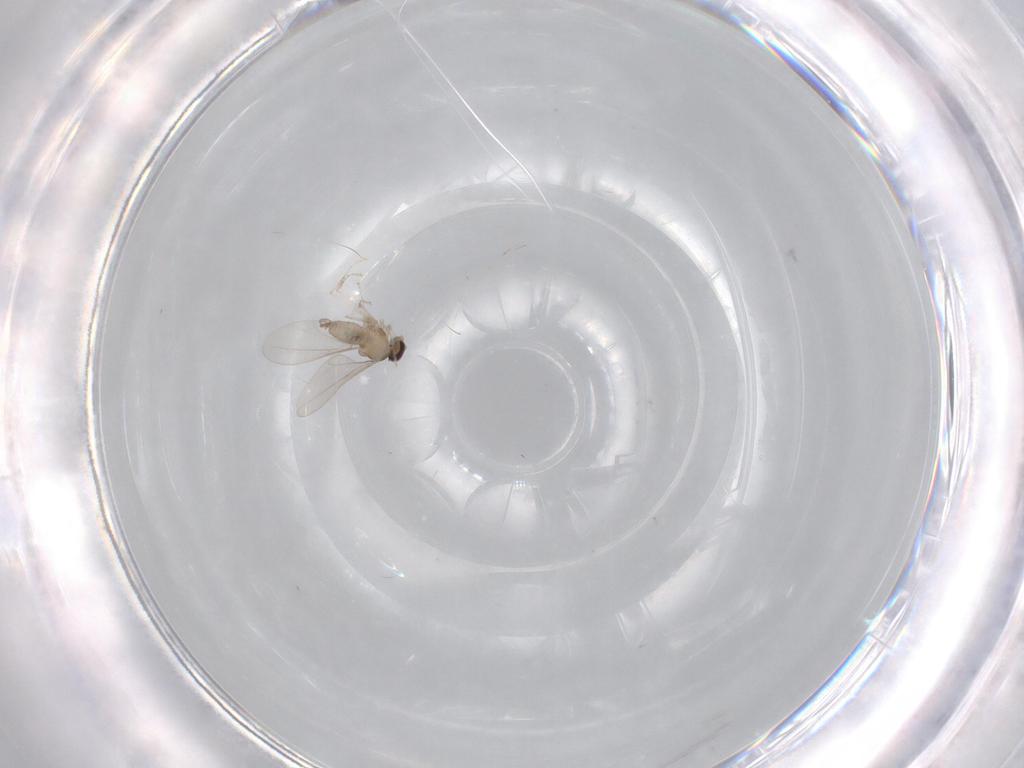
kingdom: Animalia
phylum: Arthropoda
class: Insecta
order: Diptera
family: Cecidomyiidae
